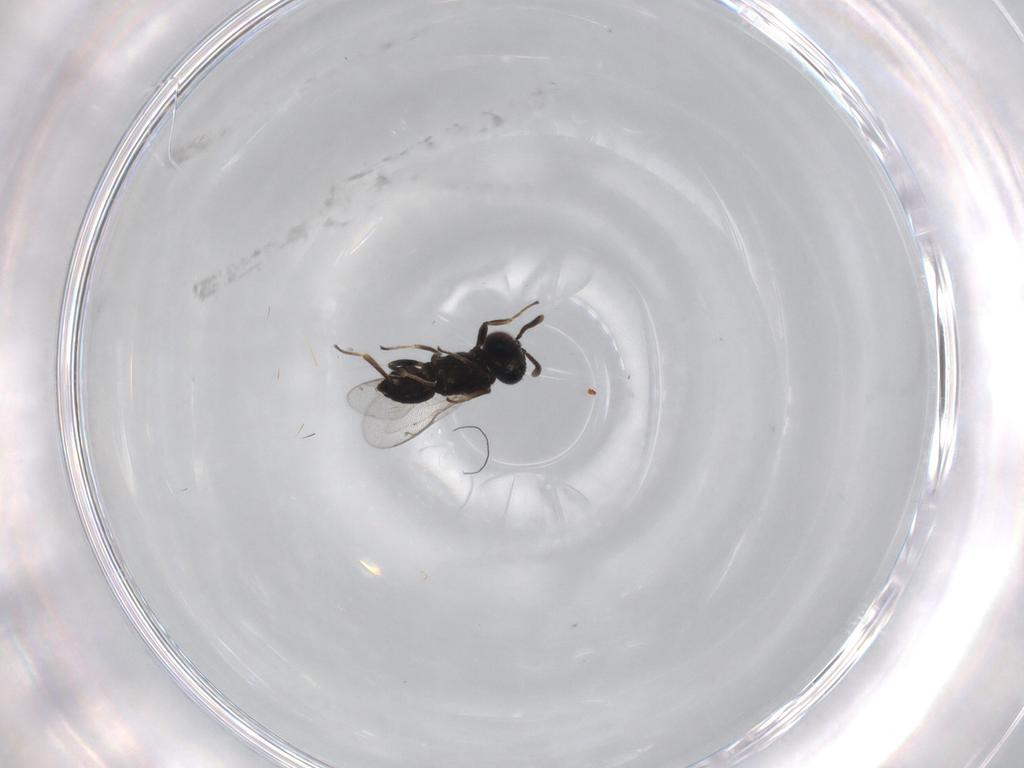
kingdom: Animalia
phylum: Arthropoda
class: Insecta
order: Hymenoptera
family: Eupelmidae
